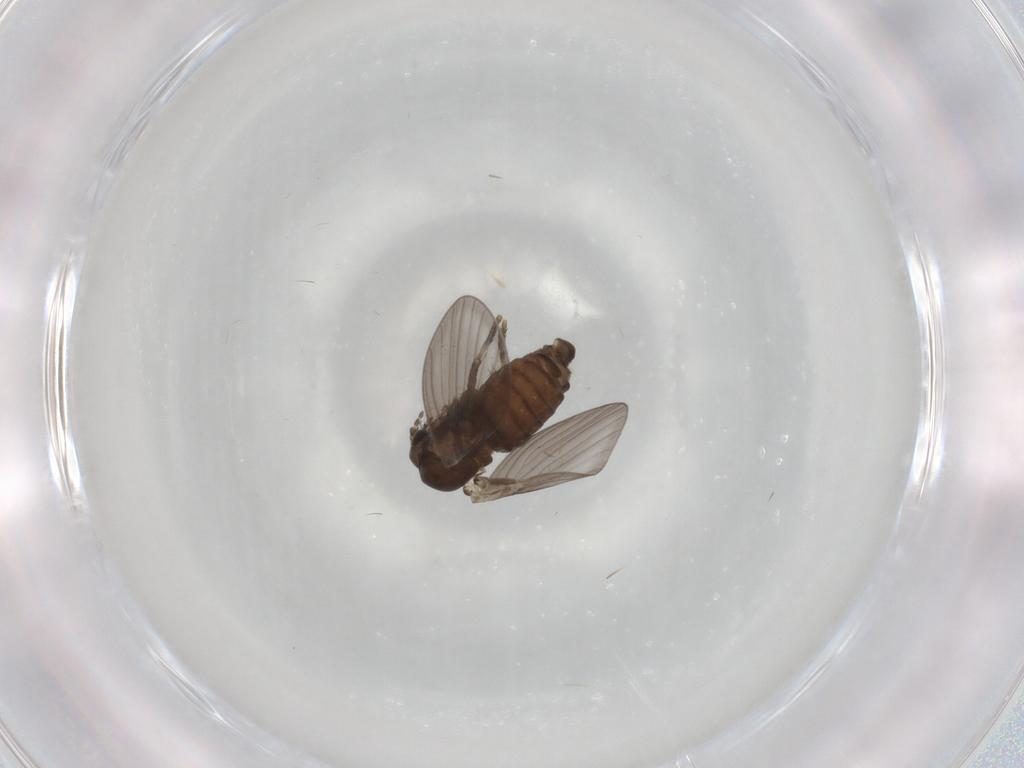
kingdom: Animalia
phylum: Arthropoda
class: Insecta
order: Diptera
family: Psychodidae
